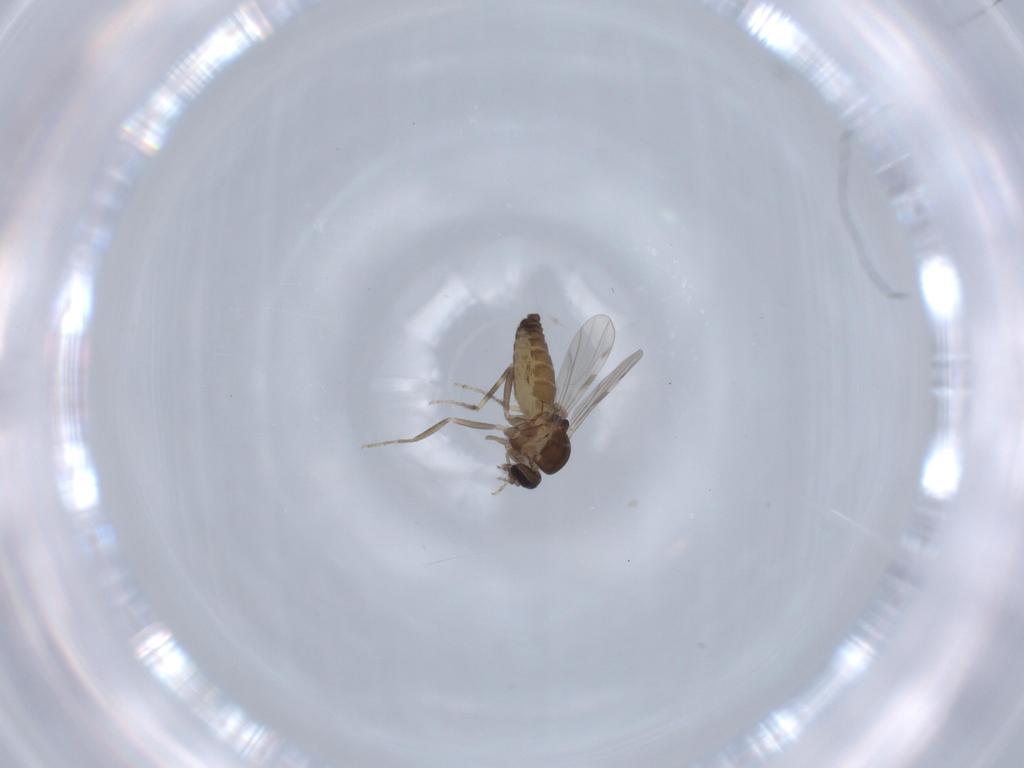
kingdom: Animalia
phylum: Arthropoda
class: Insecta
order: Diptera
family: Ceratopogonidae
